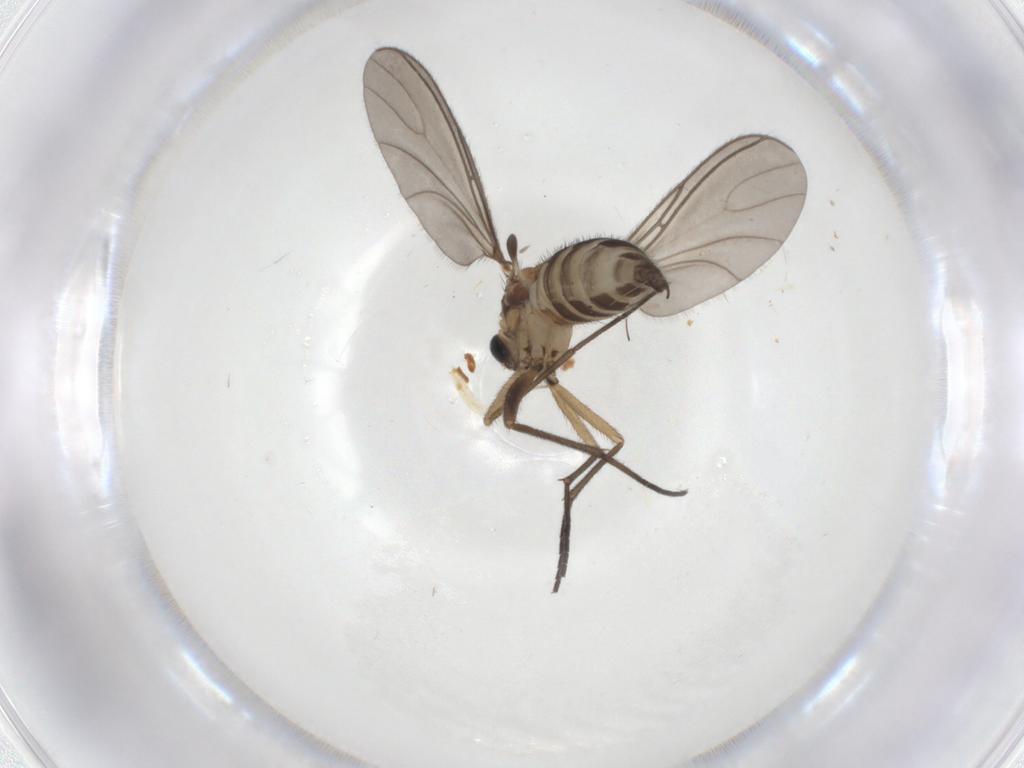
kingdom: Animalia
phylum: Arthropoda
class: Insecta
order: Diptera
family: Sciaridae
